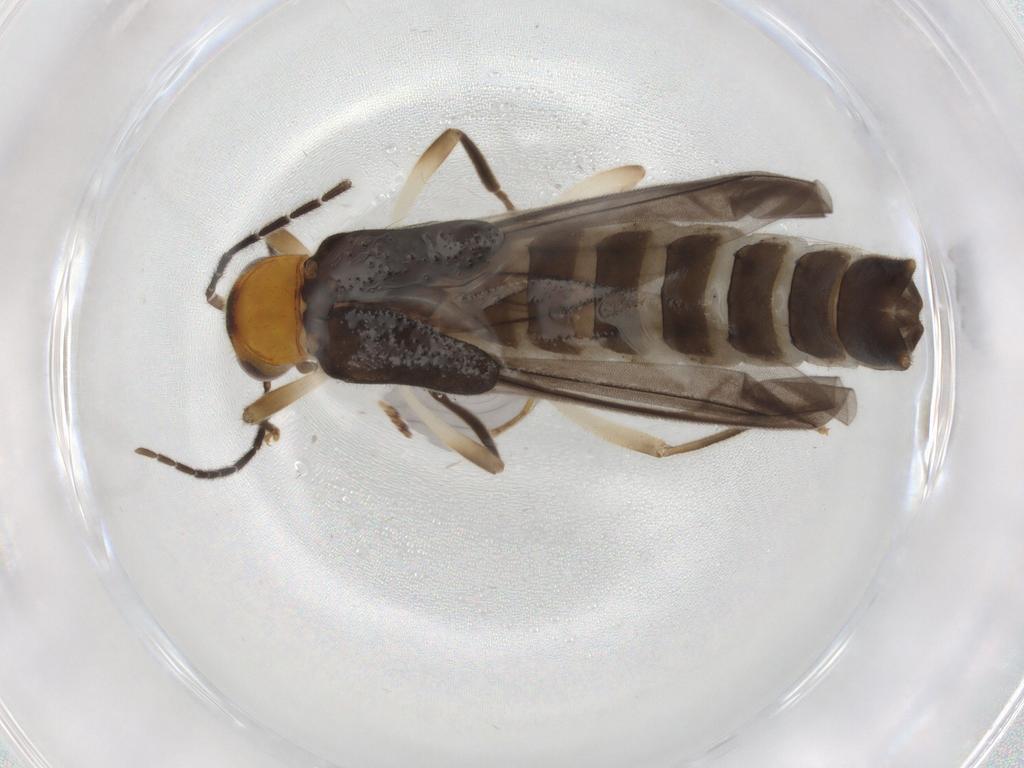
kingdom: Animalia
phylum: Arthropoda
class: Insecta
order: Coleoptera
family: Cantharidae
